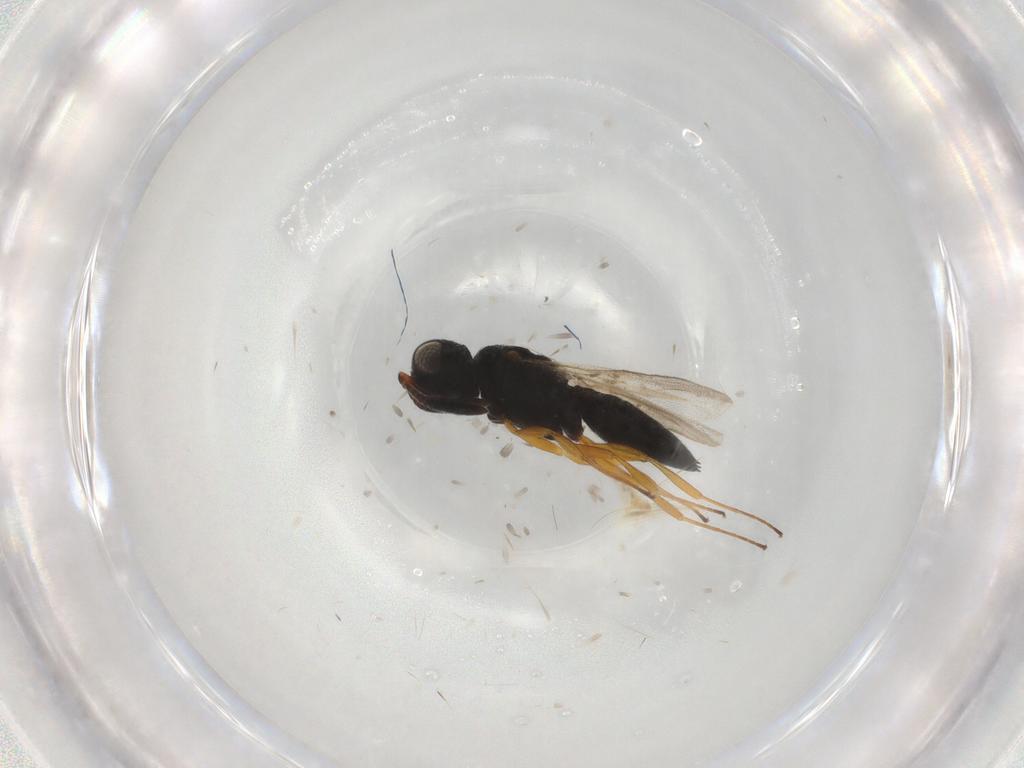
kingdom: Animalia
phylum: Arthropoda
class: Insecta
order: Hymenoptera
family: Scelionidae
